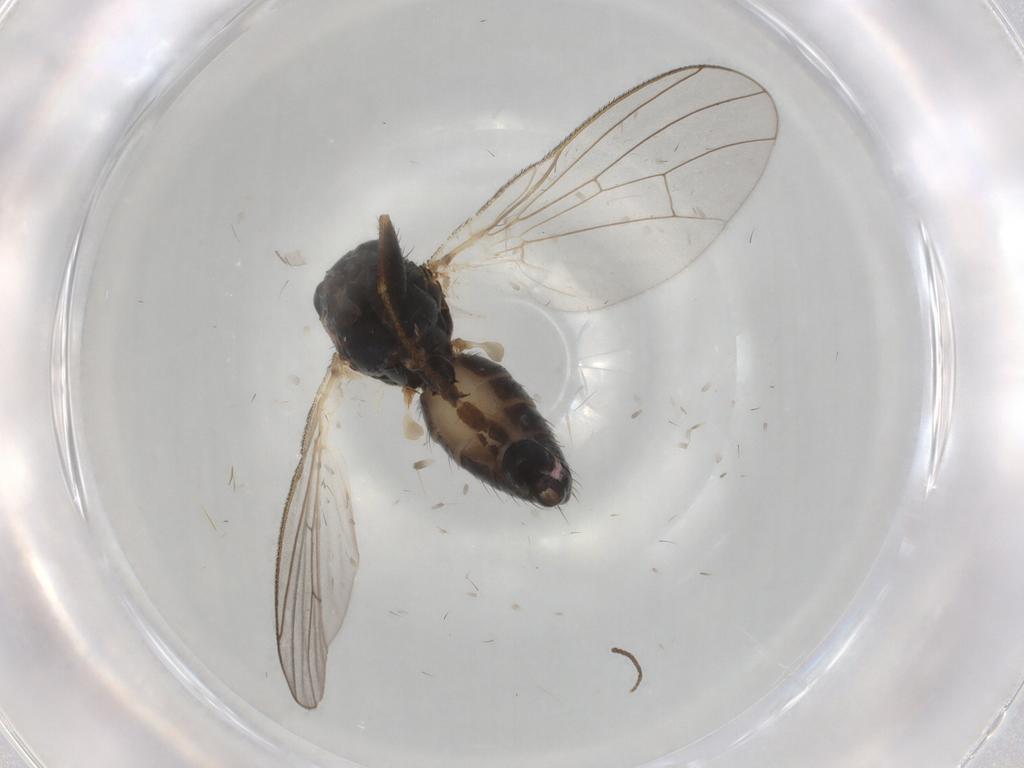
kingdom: Animalia
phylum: Arthropoda
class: Insecta
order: Diptera
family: Ceratopogonidae
